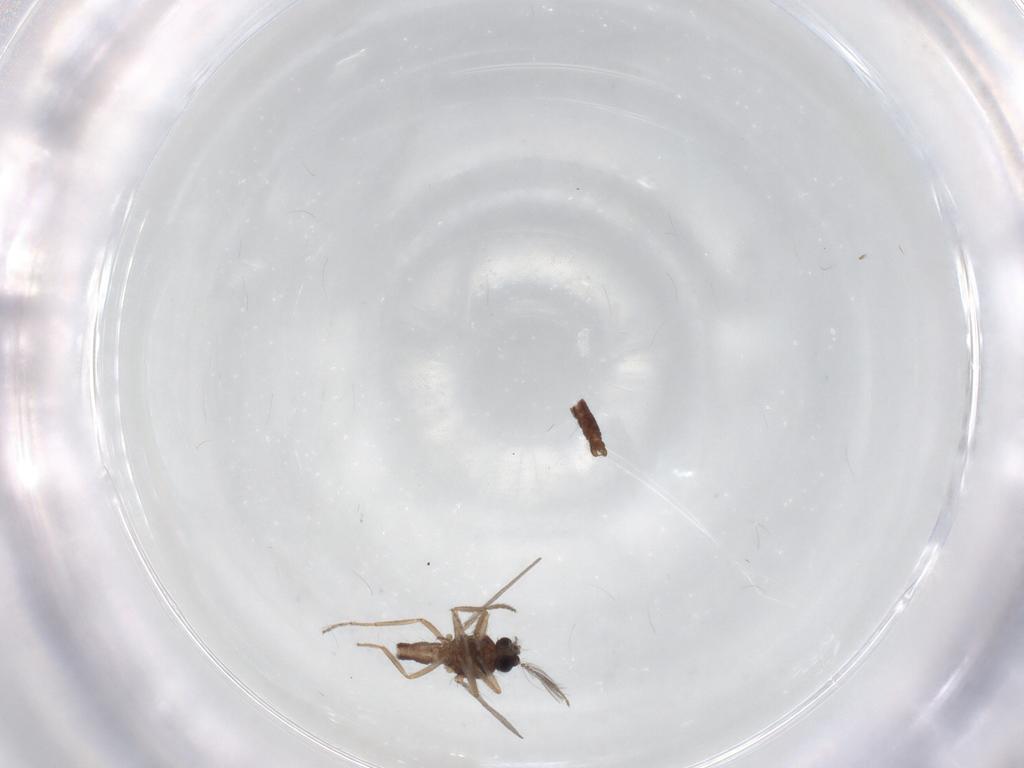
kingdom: Animalia
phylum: Arthropoda
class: Insecta
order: Diptera
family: Ceratopogonidae
